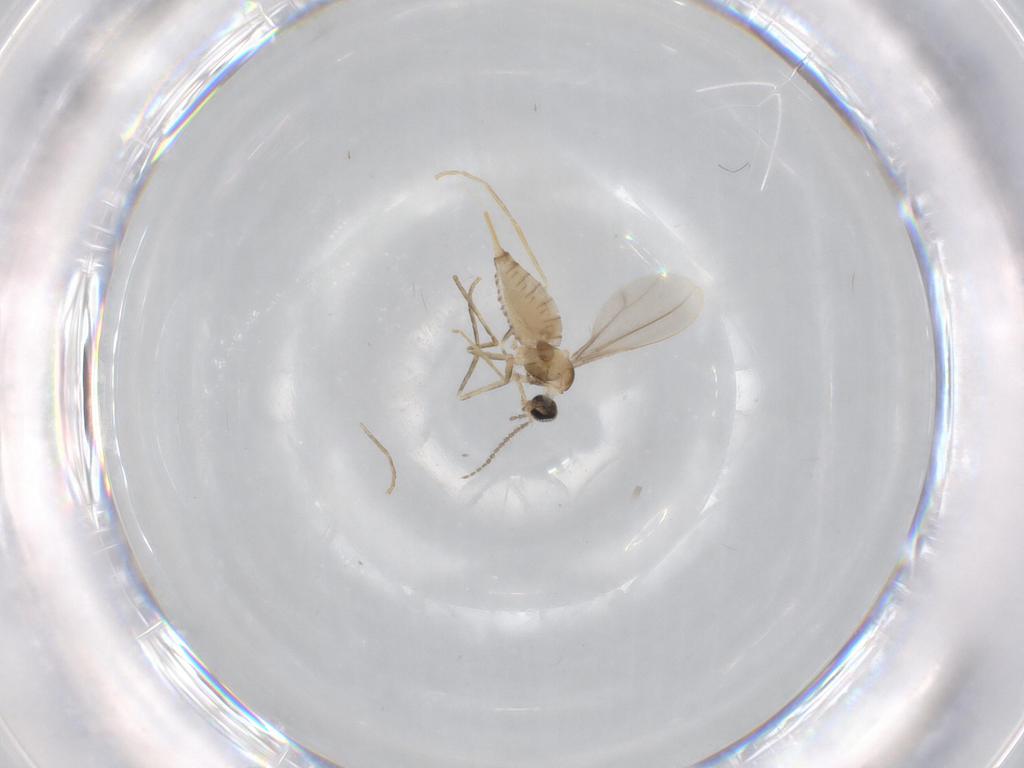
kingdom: Animalia
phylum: Arthropoda
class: Insecta
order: Diptera
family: Cecidomyiidae
